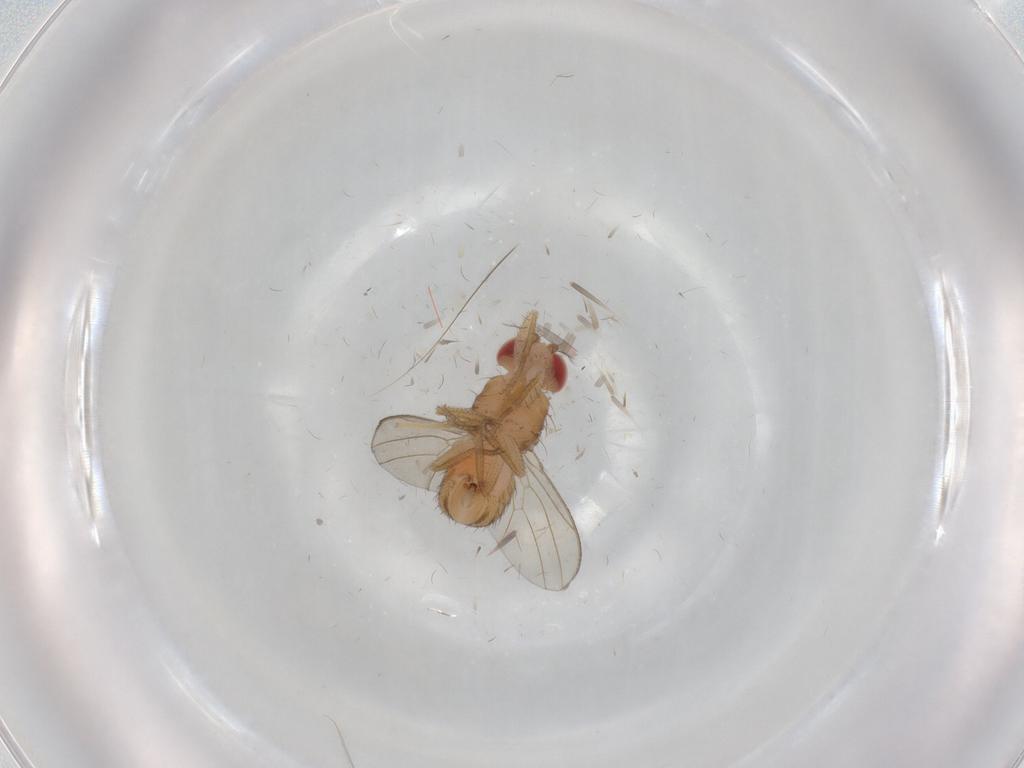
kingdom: Animalia
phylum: Arthropoda
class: Insecta
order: Diptera
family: Drosophilidae
